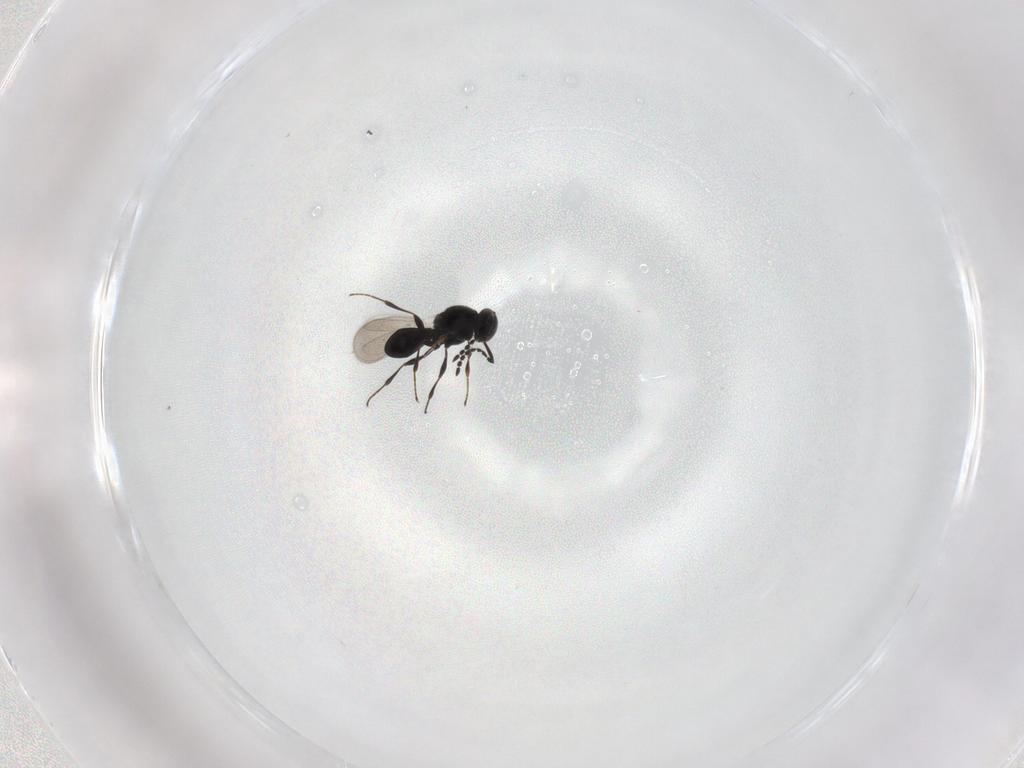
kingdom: Animalia
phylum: Arthropoda
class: Insecta
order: Hymenoptera
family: Platygastridae
